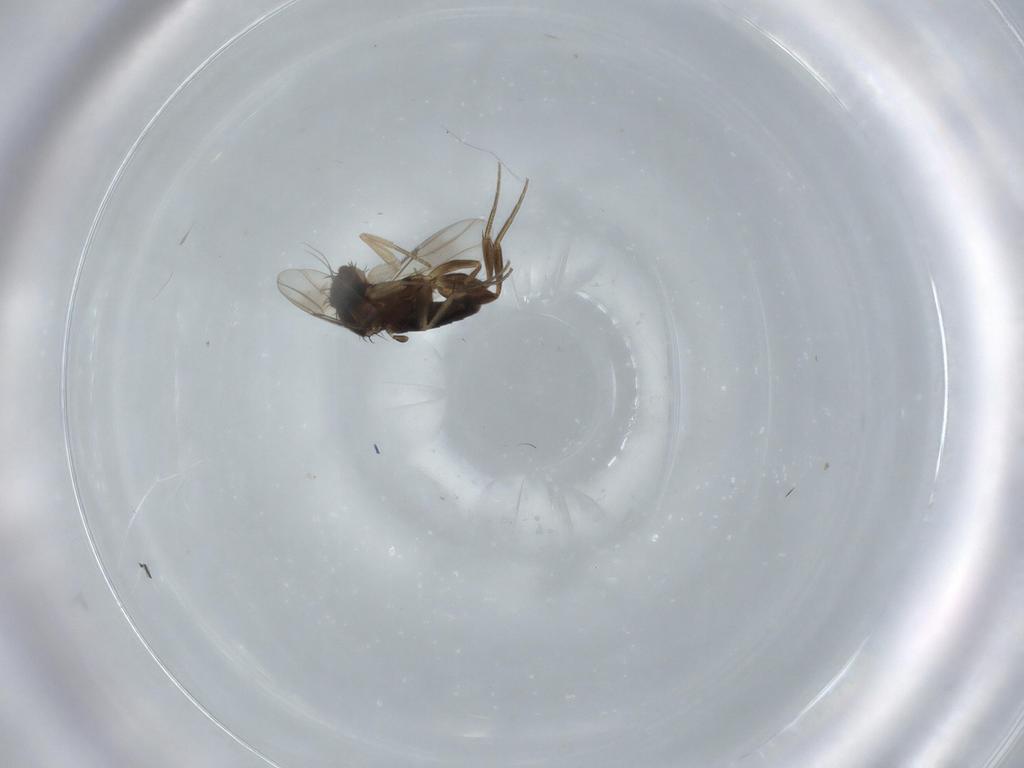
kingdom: Animalia
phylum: Arthropoda
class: Insecta
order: Diptera
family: Phoridae
